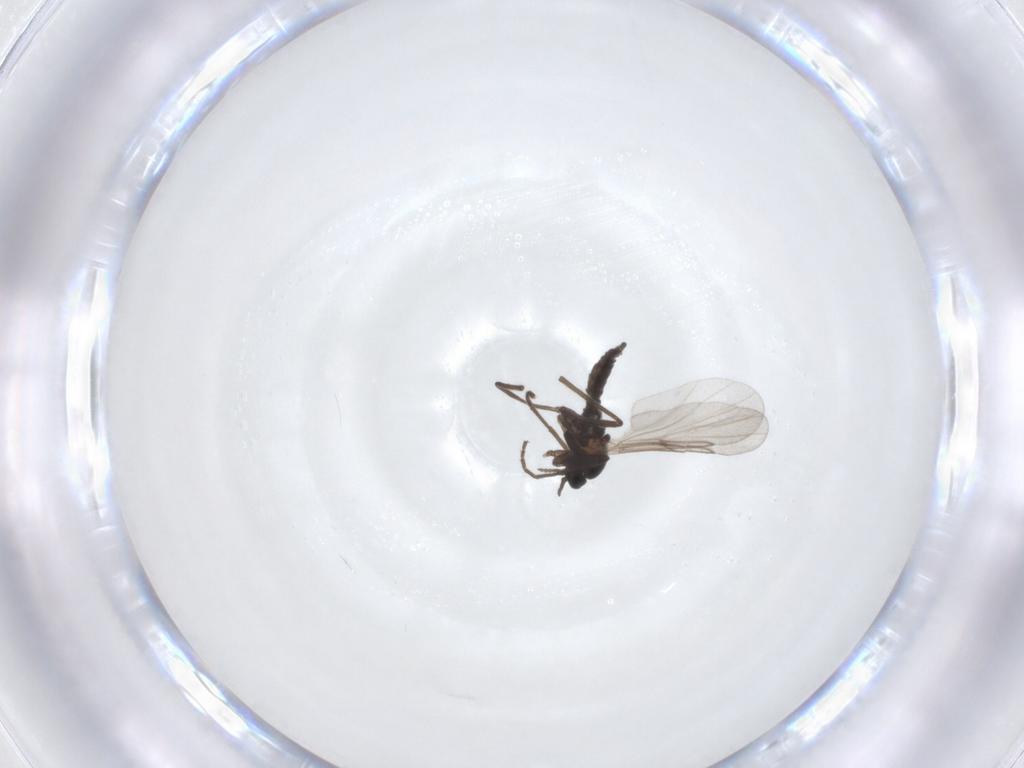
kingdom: Animalia
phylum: Arthropoda
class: Insecta
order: Diptera
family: Cecidomyiidae
